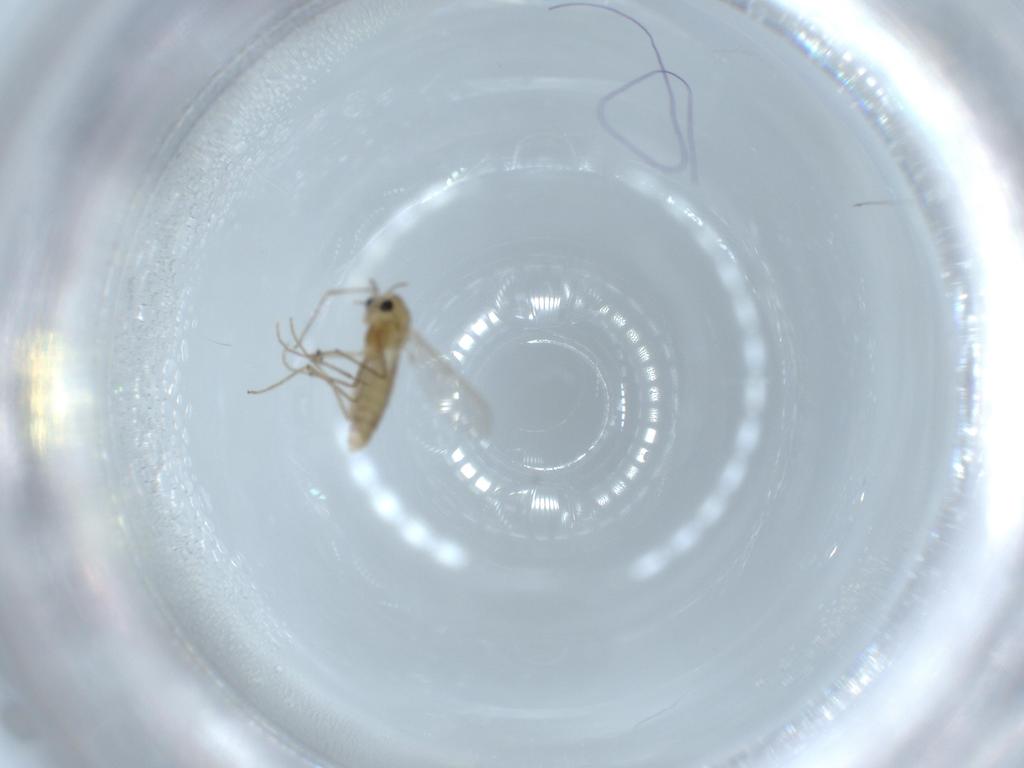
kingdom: Animalia
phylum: Arthropoda
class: Insecta
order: Diptera
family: Chironomidae
